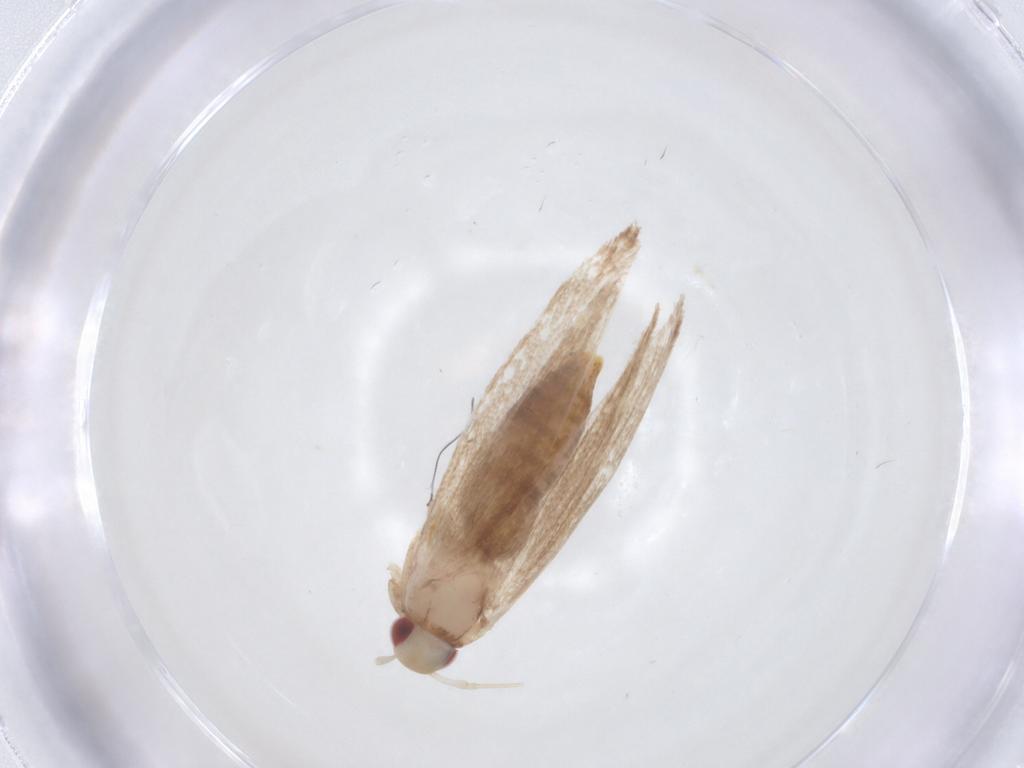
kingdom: Animalia
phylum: Arthropoda
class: Insecta
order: Lepidoptera
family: Cosmopterigidae
